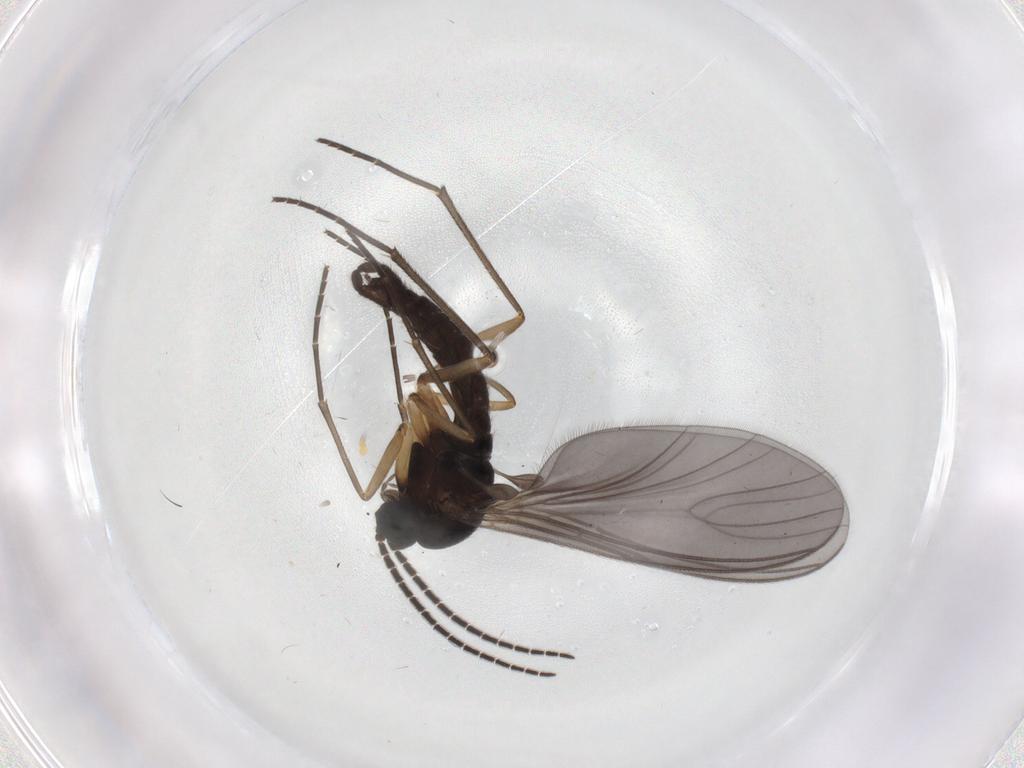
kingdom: Animalia
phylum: Arthropoda
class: Insecta
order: Diptera
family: Sciaridae
